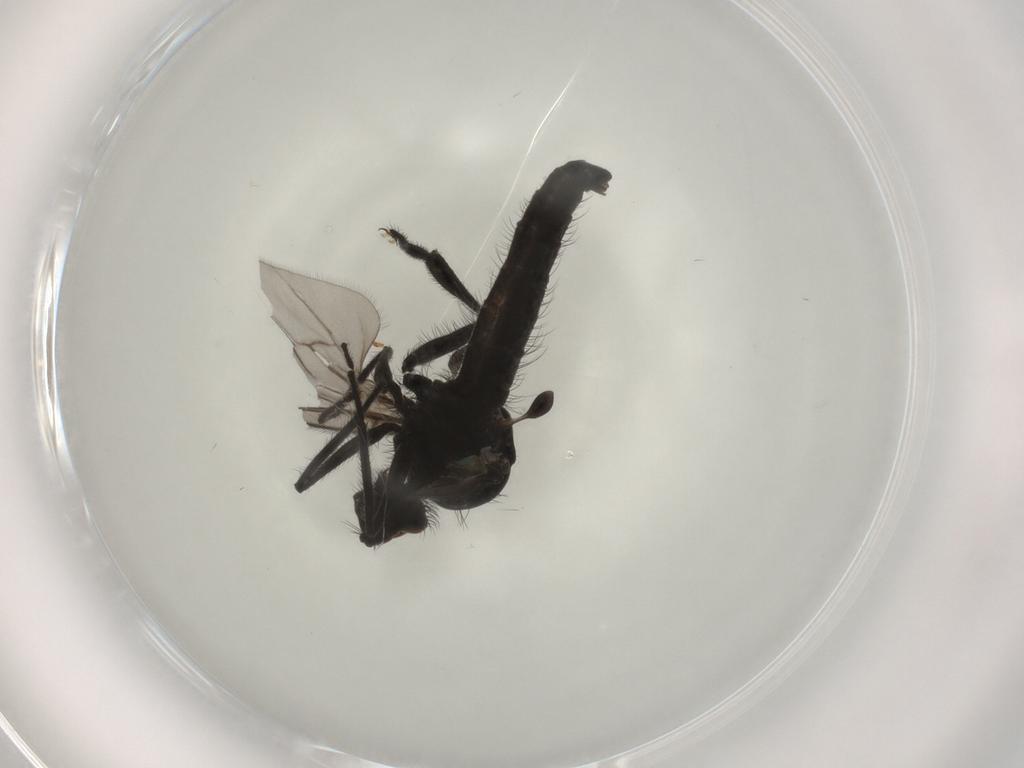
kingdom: Animalia
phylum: Arthropoda
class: Insecta
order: Diptera
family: Hybotidae
